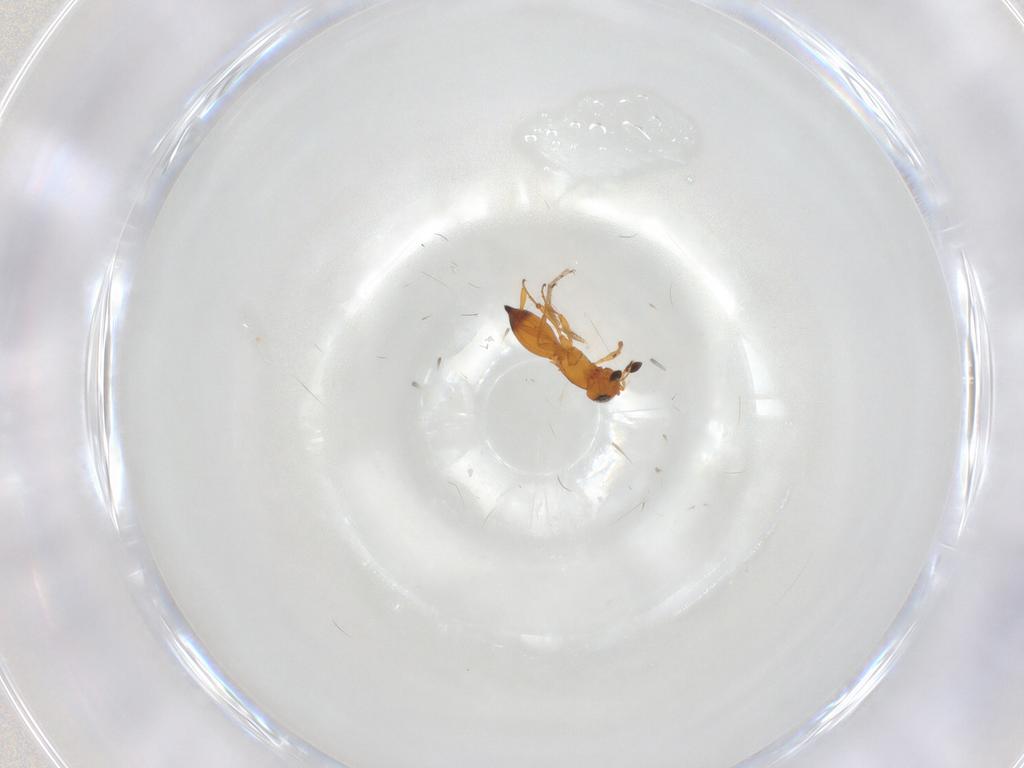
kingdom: Animalia
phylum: Arthropoda
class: Insecta
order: Hymenoptera
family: Platygastridae
